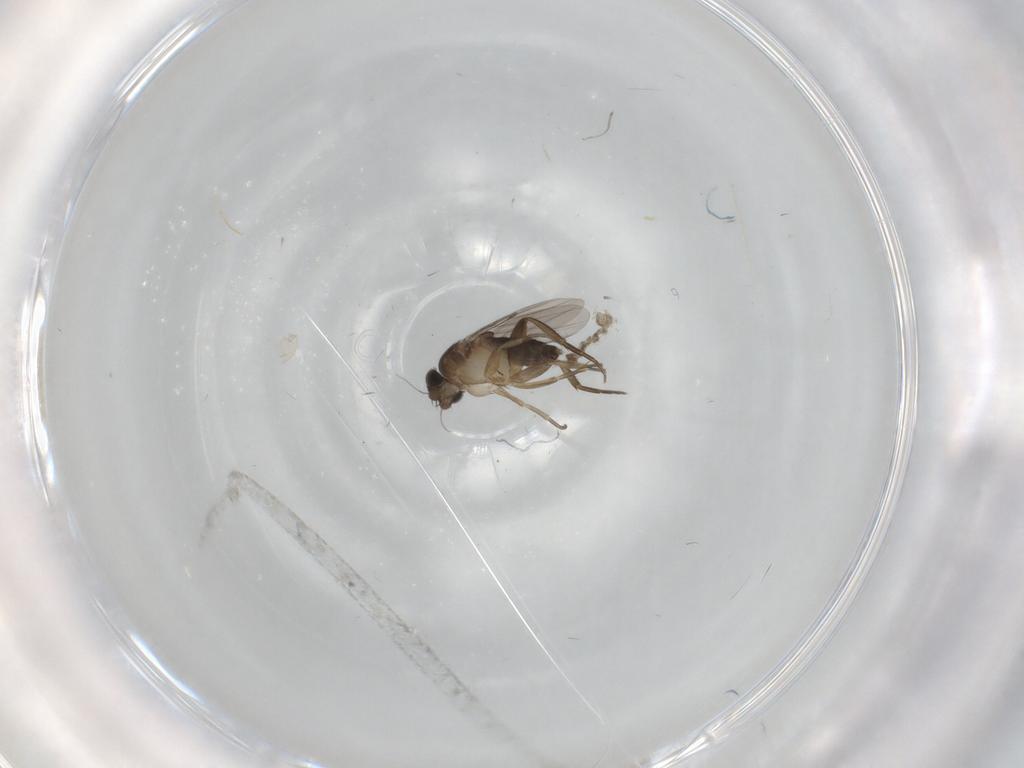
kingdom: Animalia
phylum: Arthropoda
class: Insecta
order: Diptera
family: Phoridae
